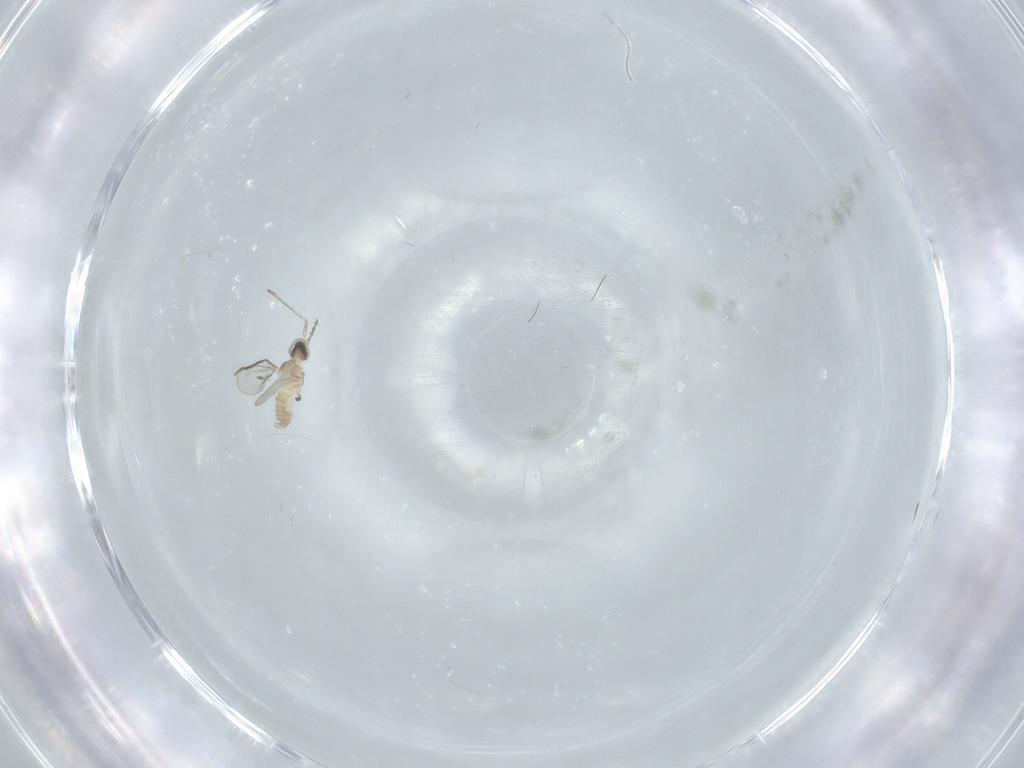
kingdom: Animalia
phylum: Arthropoda
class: Insecta
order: Diptera
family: Cecidomyiidae
